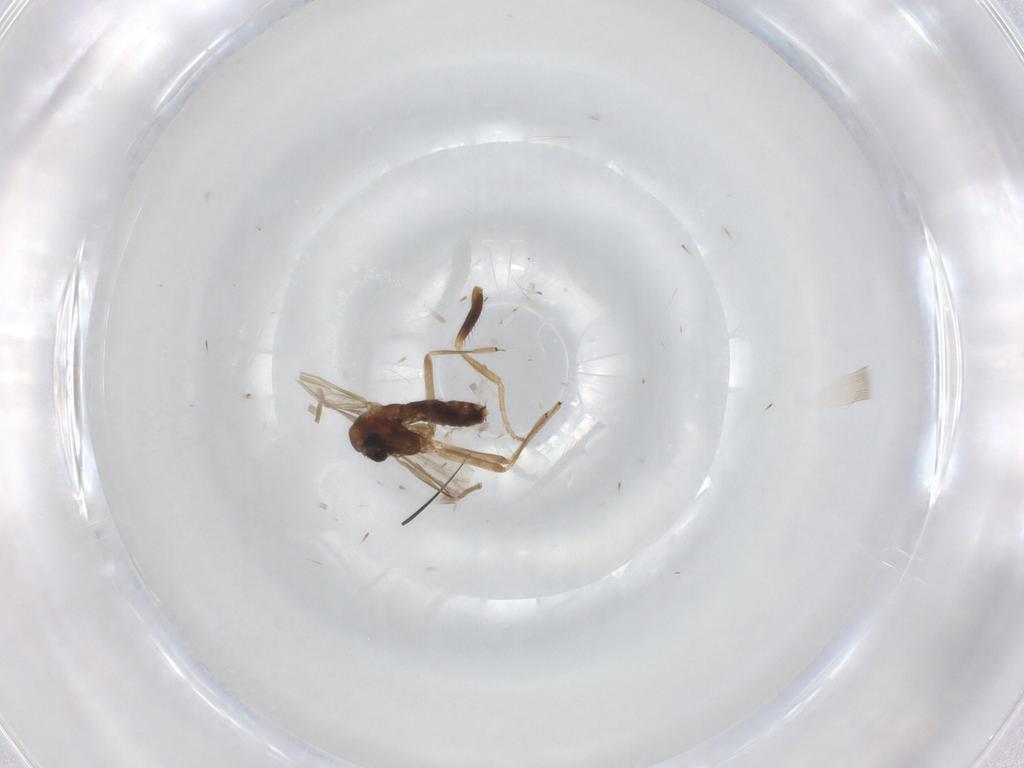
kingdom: Animalia
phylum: Arthropoda
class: Insecta
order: Diptera
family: Chironomidae
